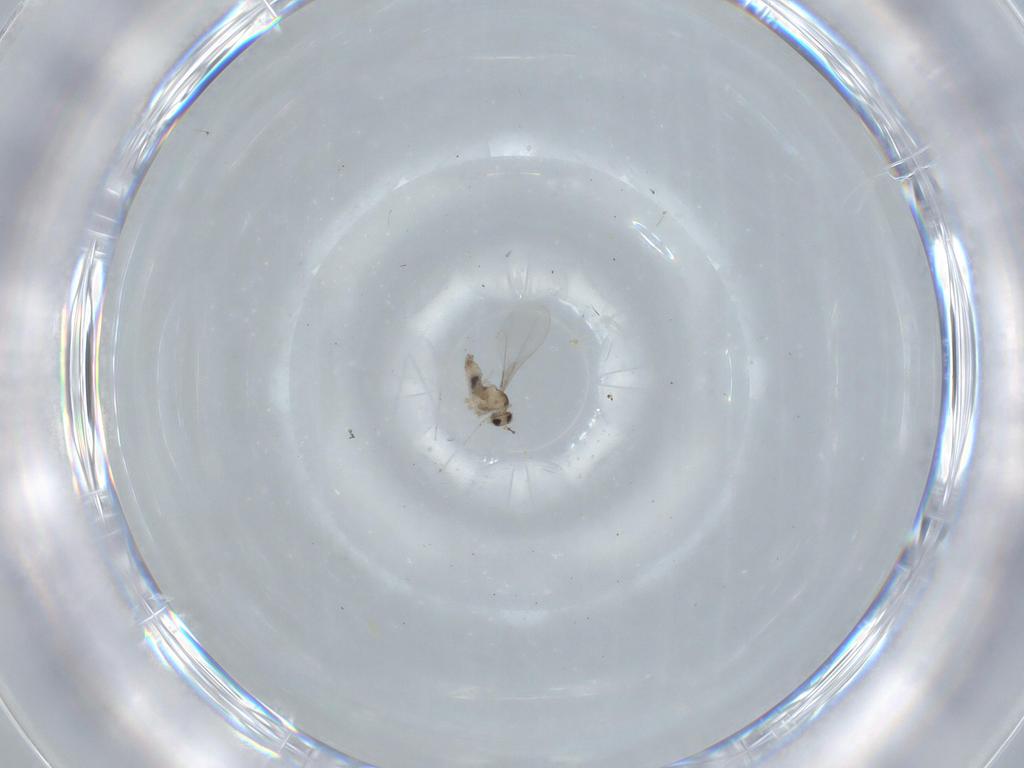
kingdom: Animalia
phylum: Arthropoda
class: Insecta
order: Diptera
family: Cecidomyiidae
